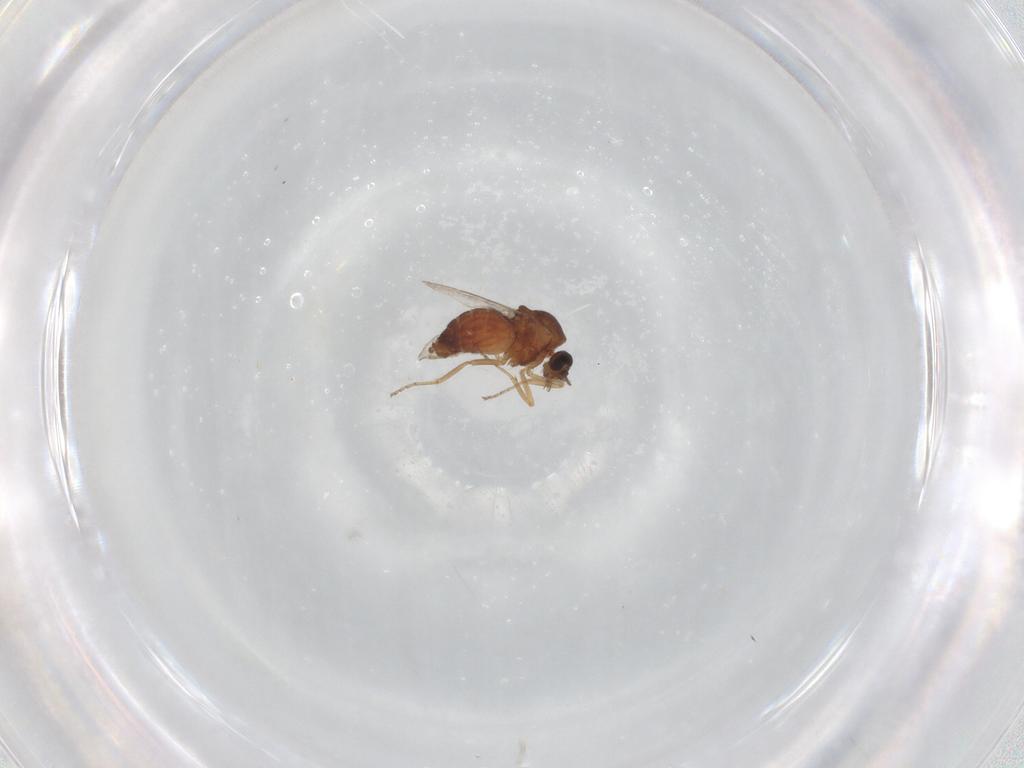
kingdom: Animalia
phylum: Arthropoda
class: Insecta
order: Diptera
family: Ceratopogonidae
